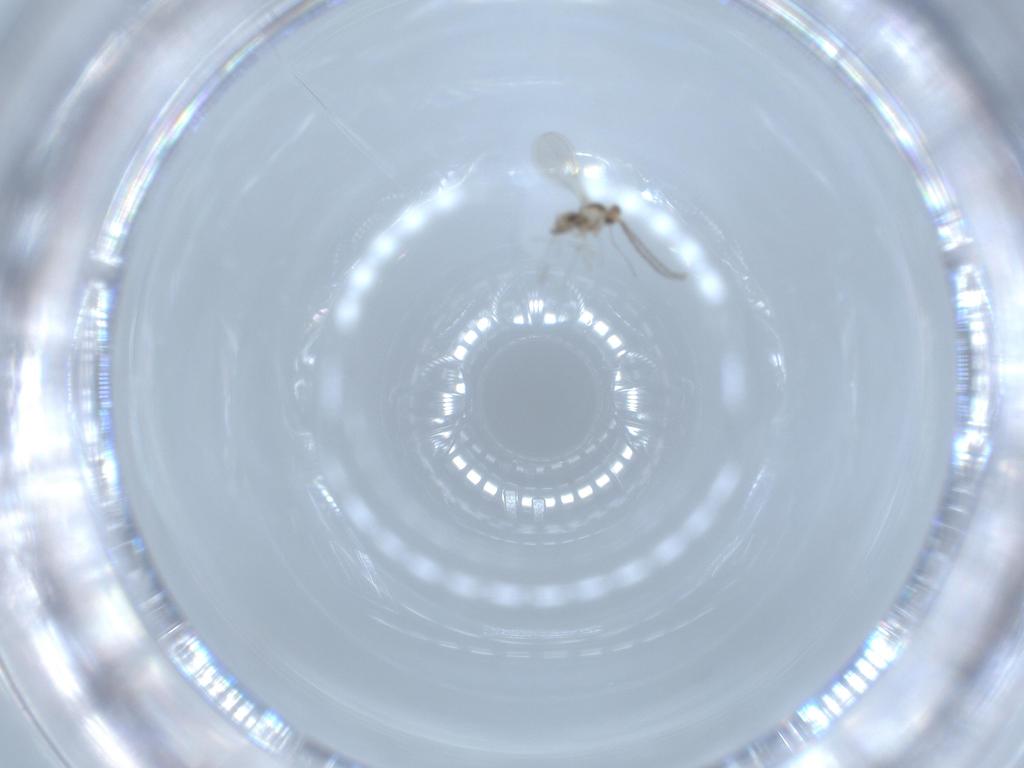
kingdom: Animalia
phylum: Arthropoda
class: Insecta
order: Diptera
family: Cecidomyiidae
